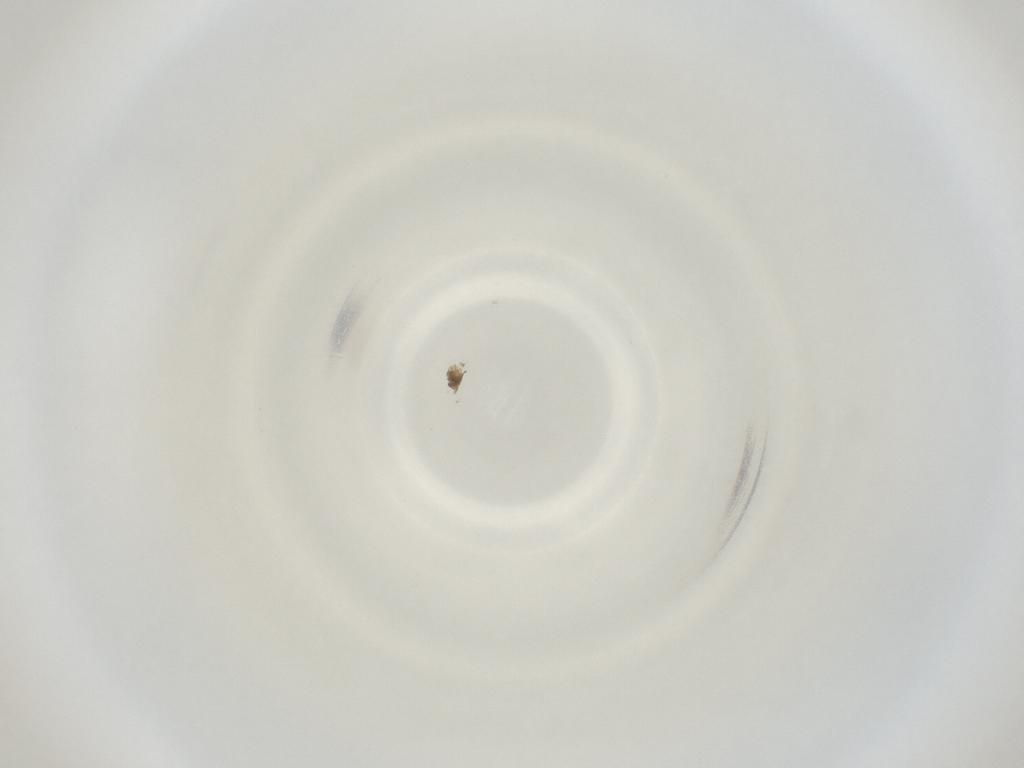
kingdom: Animalia
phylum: Arthropoda
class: Insecta
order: Diptera
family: Cecidomyiidae
